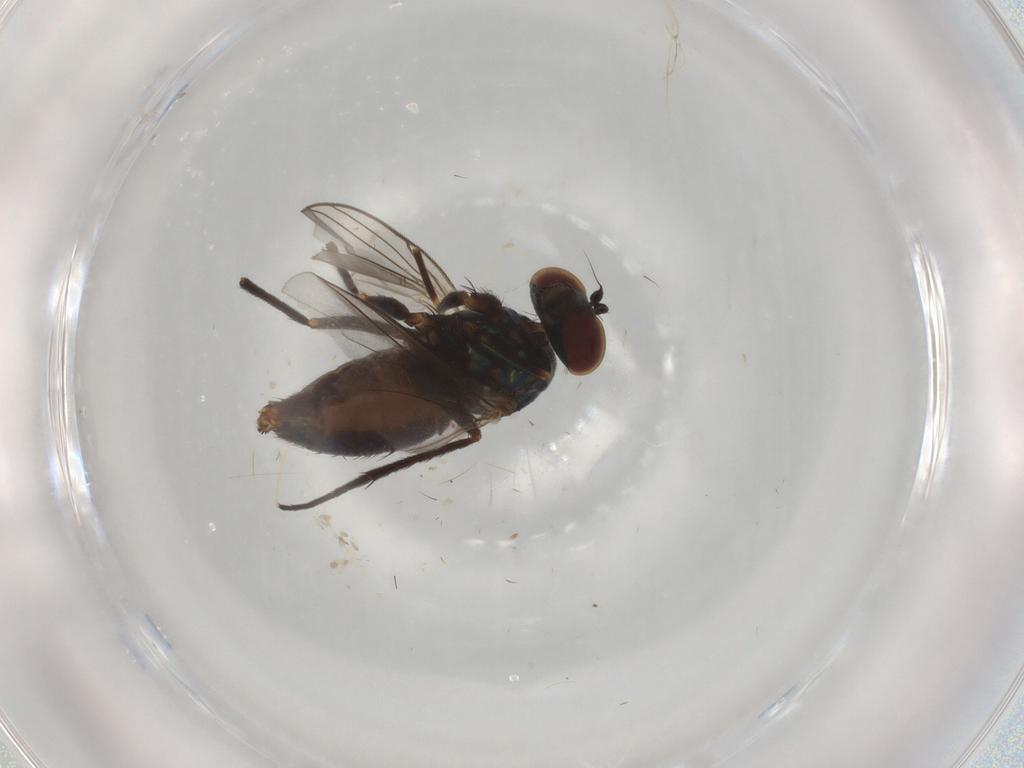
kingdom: Animalia
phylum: Arthropoda
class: Insecta
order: Diptera
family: Dolichopodidae
